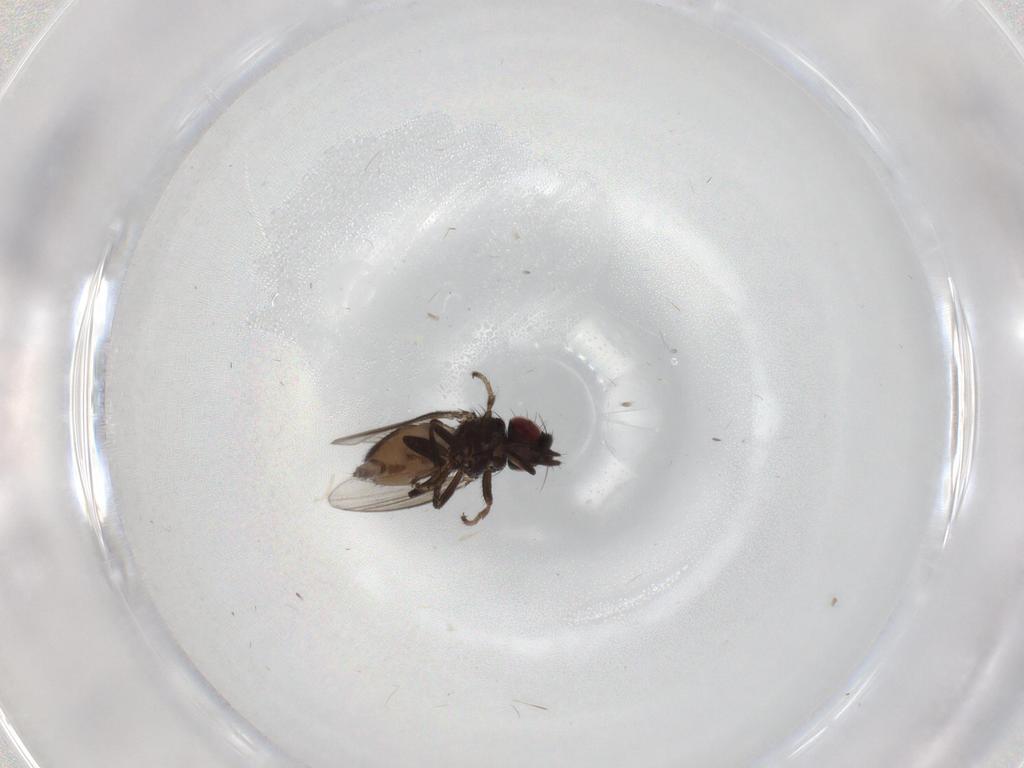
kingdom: Animalia
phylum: Arthropoda
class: Insecta
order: Diptera
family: Milichiidae
